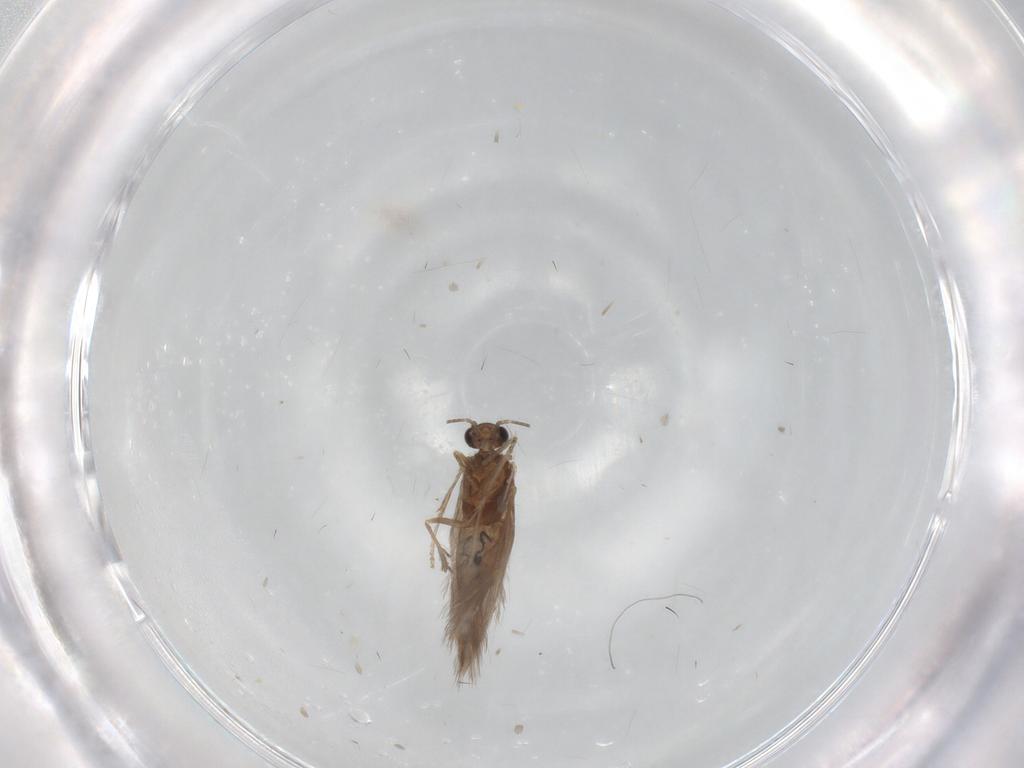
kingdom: Animalia
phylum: Arthropoda
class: Insecta
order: Trichoptera
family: Hydroptilidae
